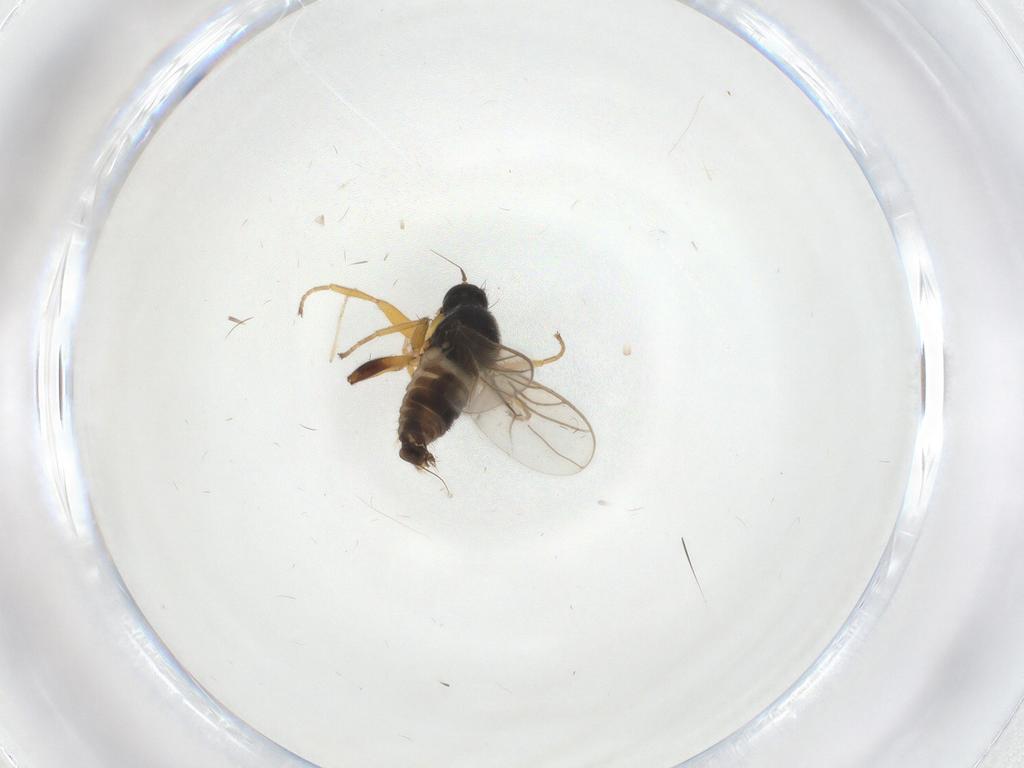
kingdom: Animalia
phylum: Arthropoda
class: Insecta
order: Diptera
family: Hybotidae
